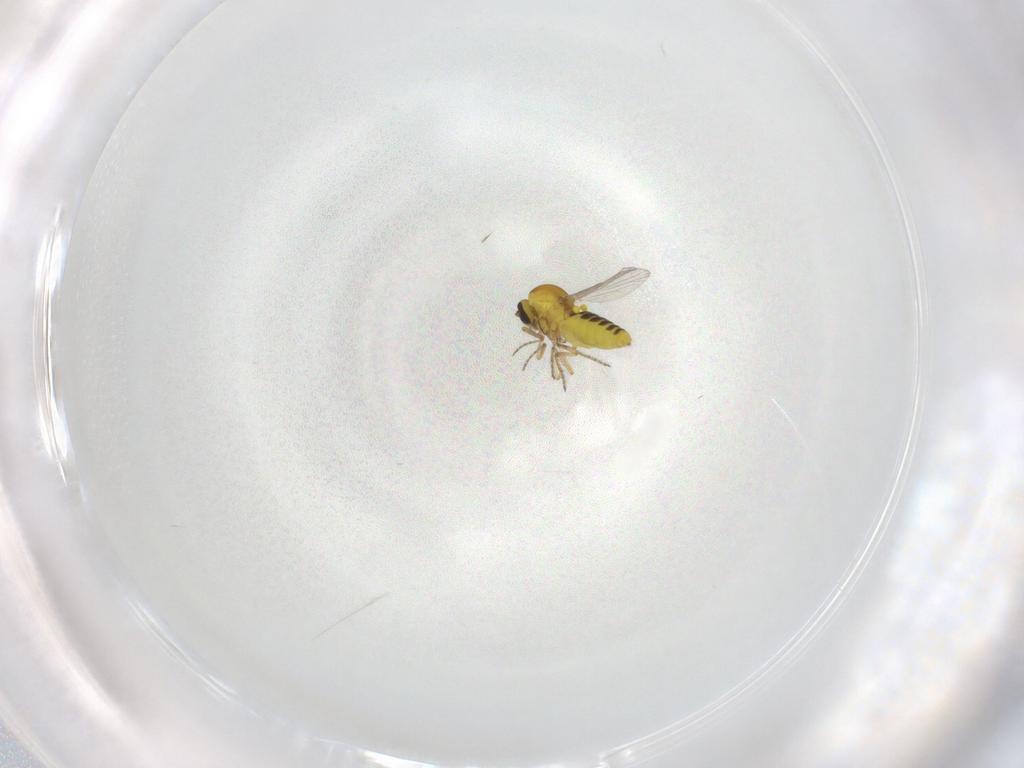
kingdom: Animalia
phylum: Arthropoda
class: Insecta
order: Diptera
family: Ceratopogonidae
